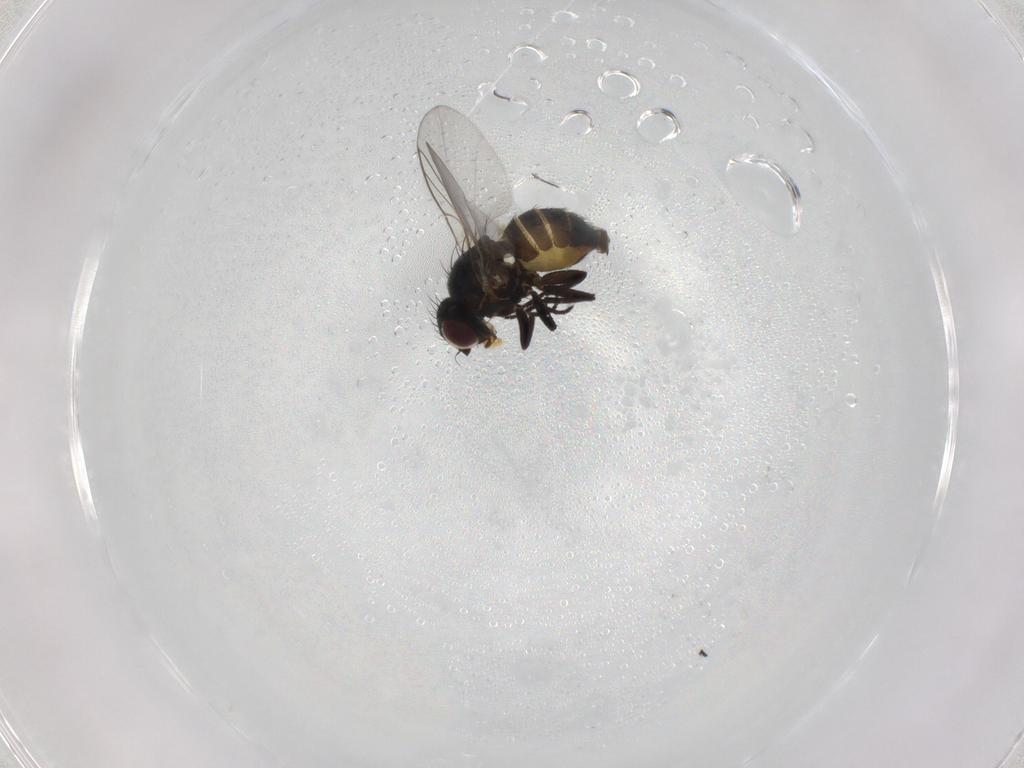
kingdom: Animalia
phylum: Arthropoda
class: Insecta
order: Diptera
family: Agromyzidae
